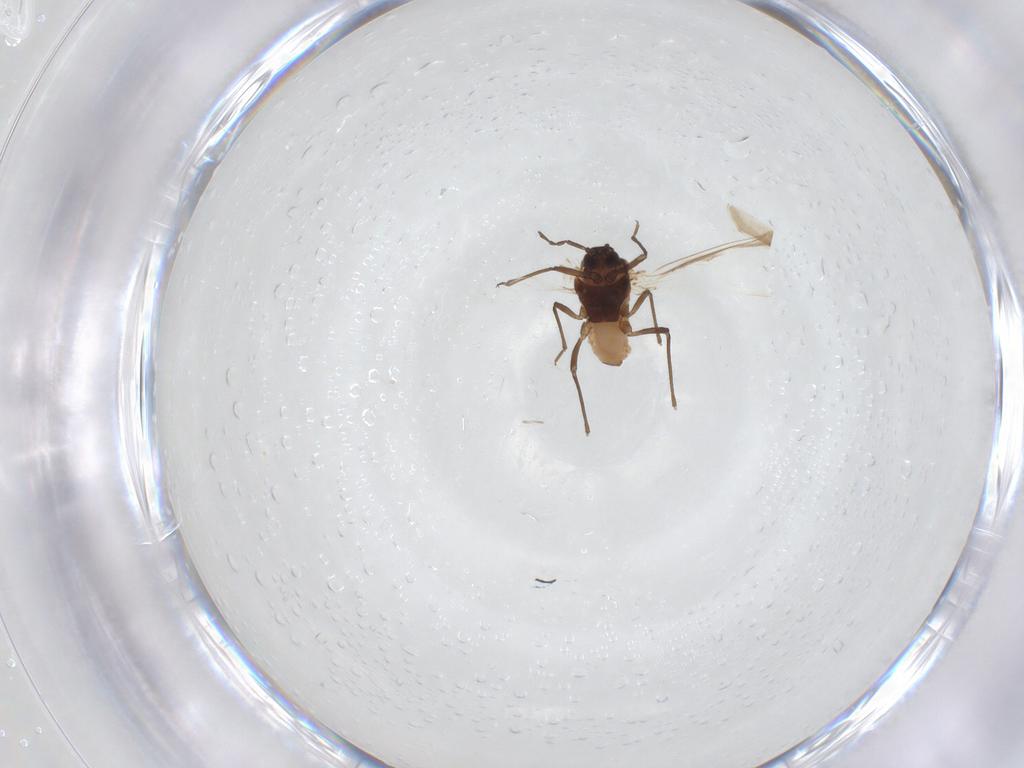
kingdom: Animalia
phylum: Arthropoda
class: Insecta
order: Hemiptera
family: Aphididae
